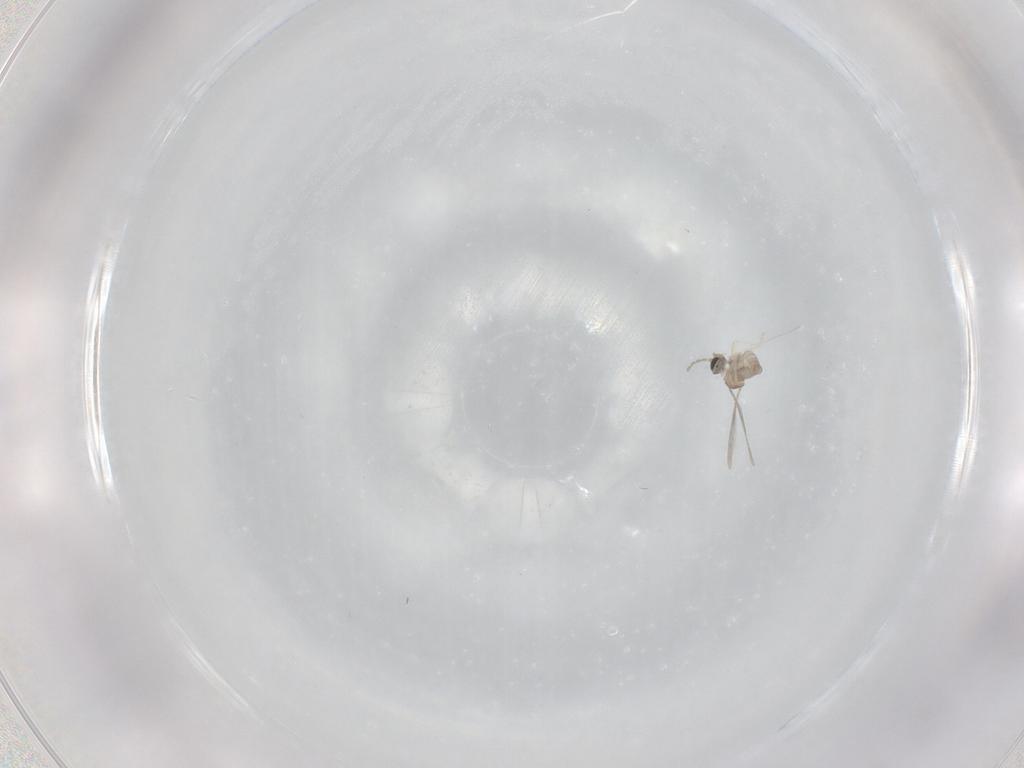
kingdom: Animalia
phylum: Arthropoda
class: Insecta
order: Diptera
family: Cecidomyiidae
